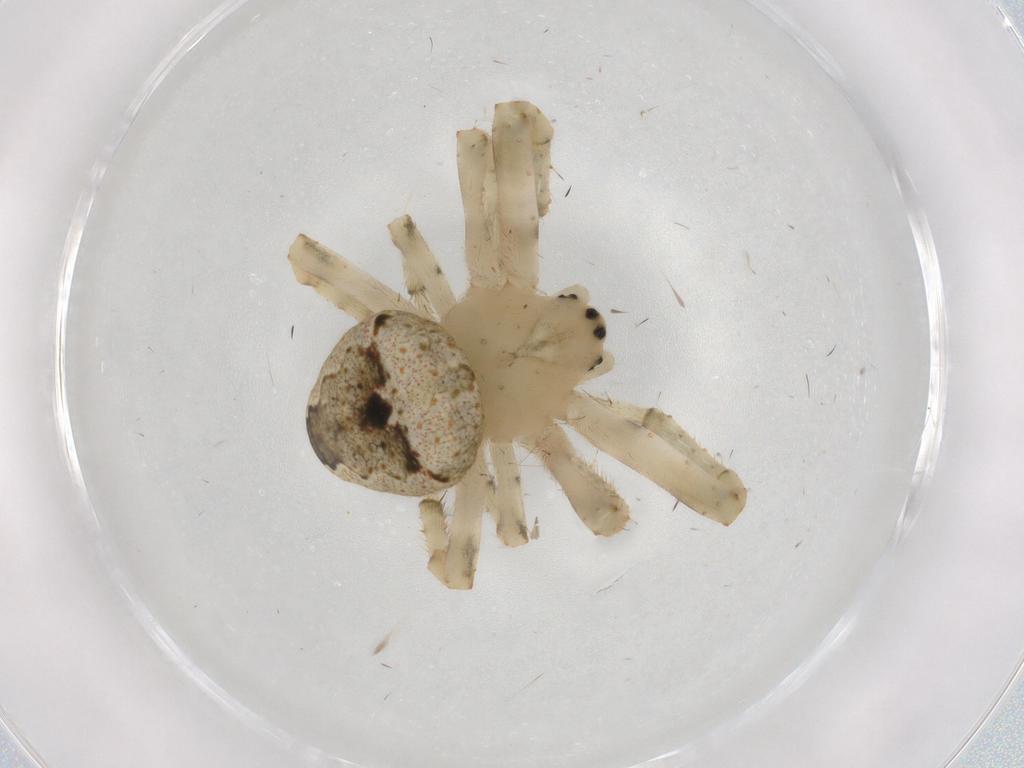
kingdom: Animalia
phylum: Arthropoda
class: Arachnida
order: Araneae
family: Araneidae
